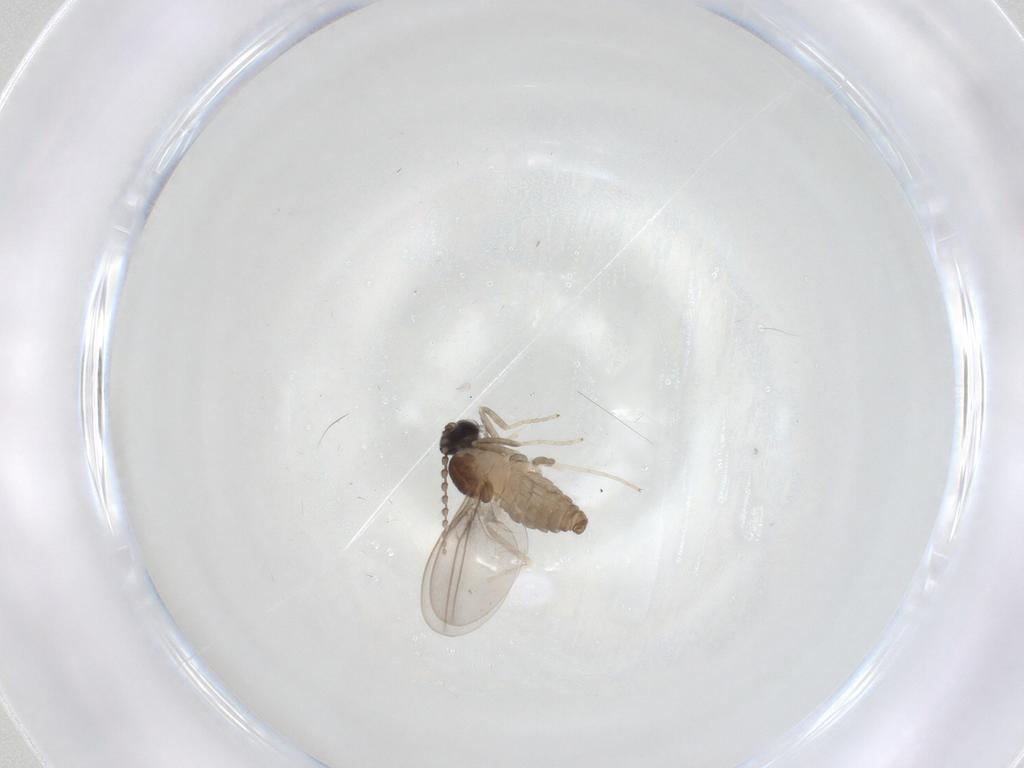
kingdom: Animalia
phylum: Arthropoda
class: Insecta
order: Diptera
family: Cecidomyiidae
